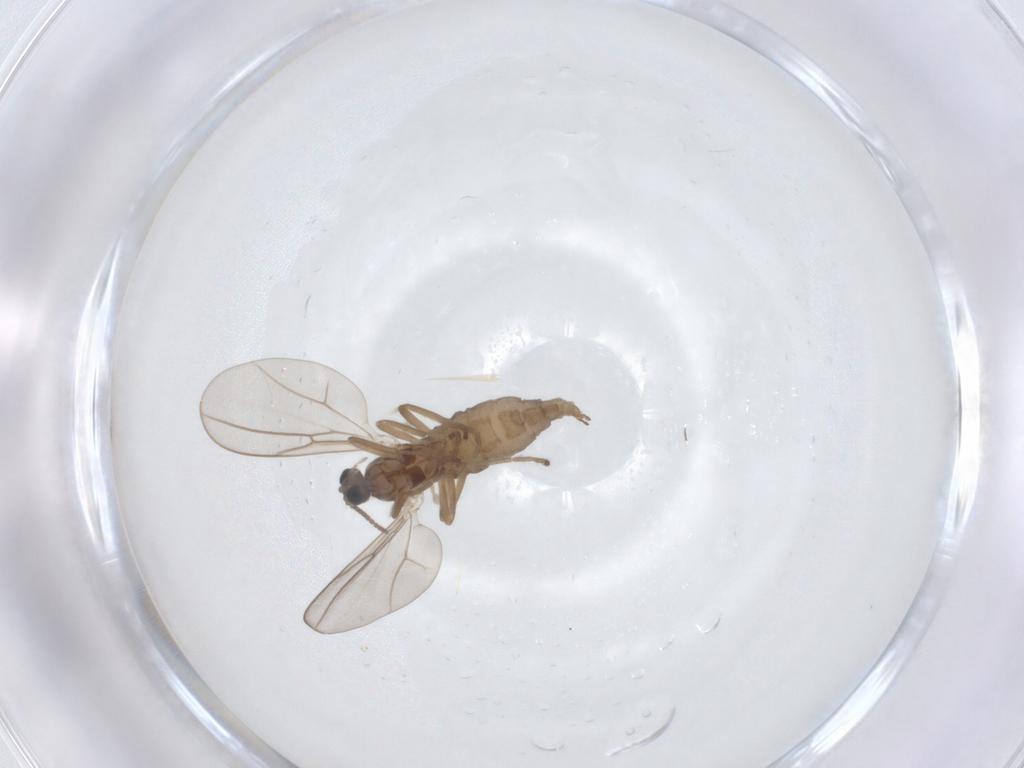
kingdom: Animalia
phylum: Arthropoda
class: Insecta
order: Diptera
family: Cecidomyiidae
